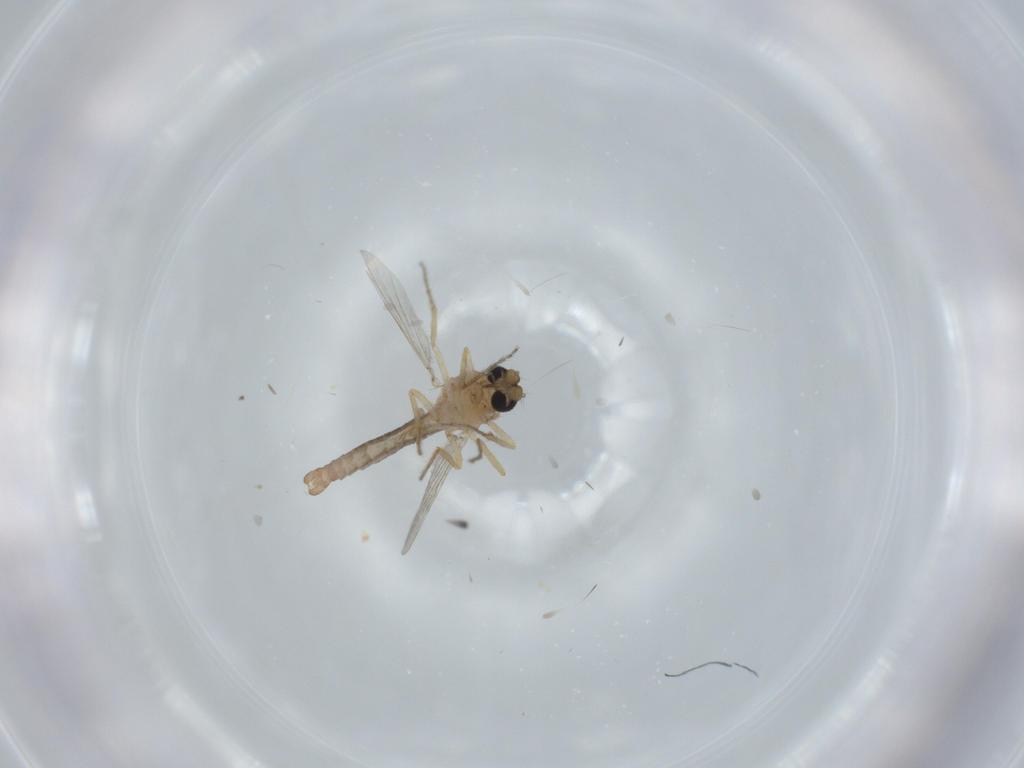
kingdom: Animalia
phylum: Arthropoda
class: Insecta
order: Diptera
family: Ceratopogonidae
